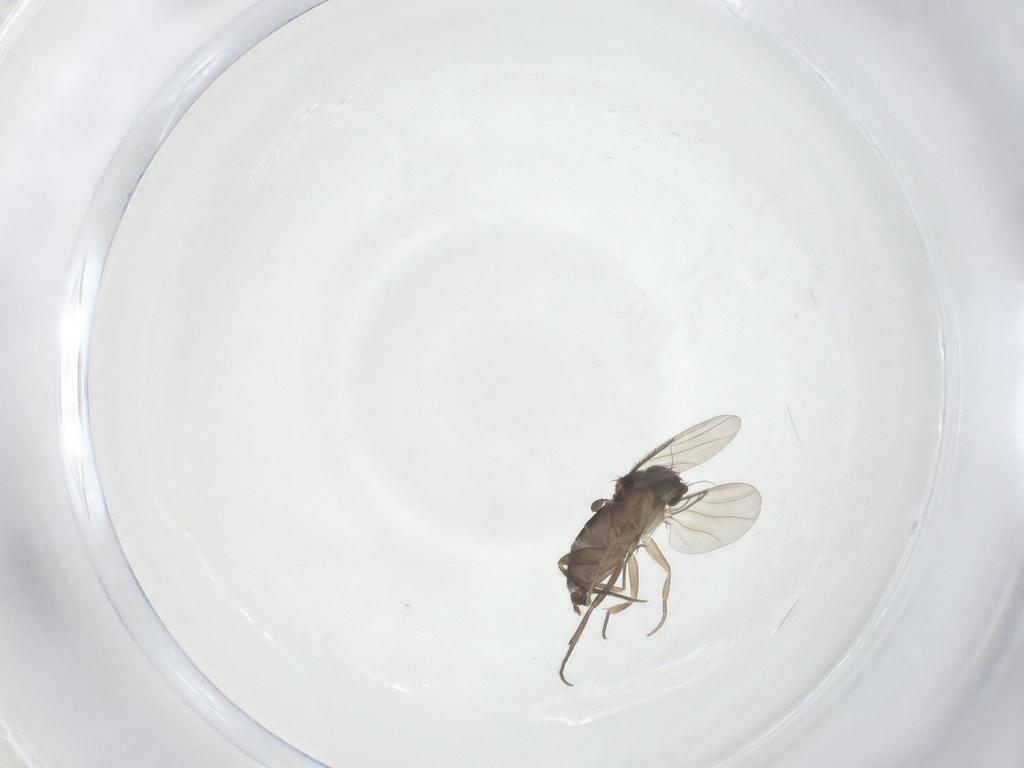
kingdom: Animalia
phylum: Arthropoda
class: Insecta
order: Diptera
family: Phoridae
